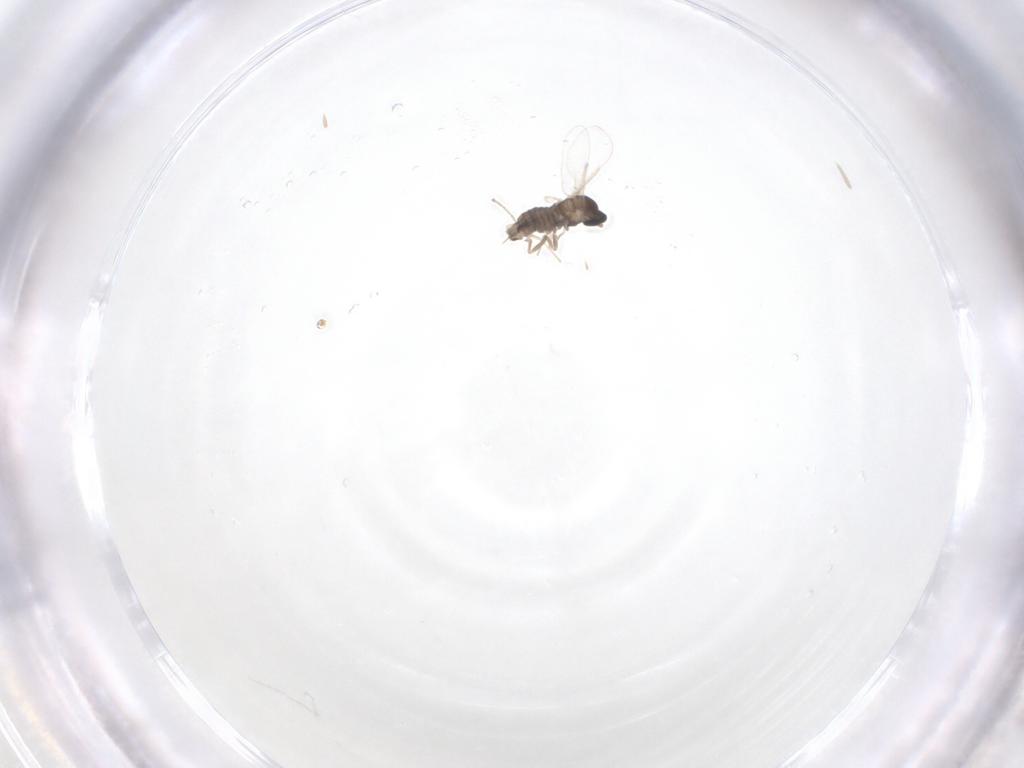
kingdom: Animalia
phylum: Arthropoda
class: Insecta
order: Diptera
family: Cecidomyiidae
